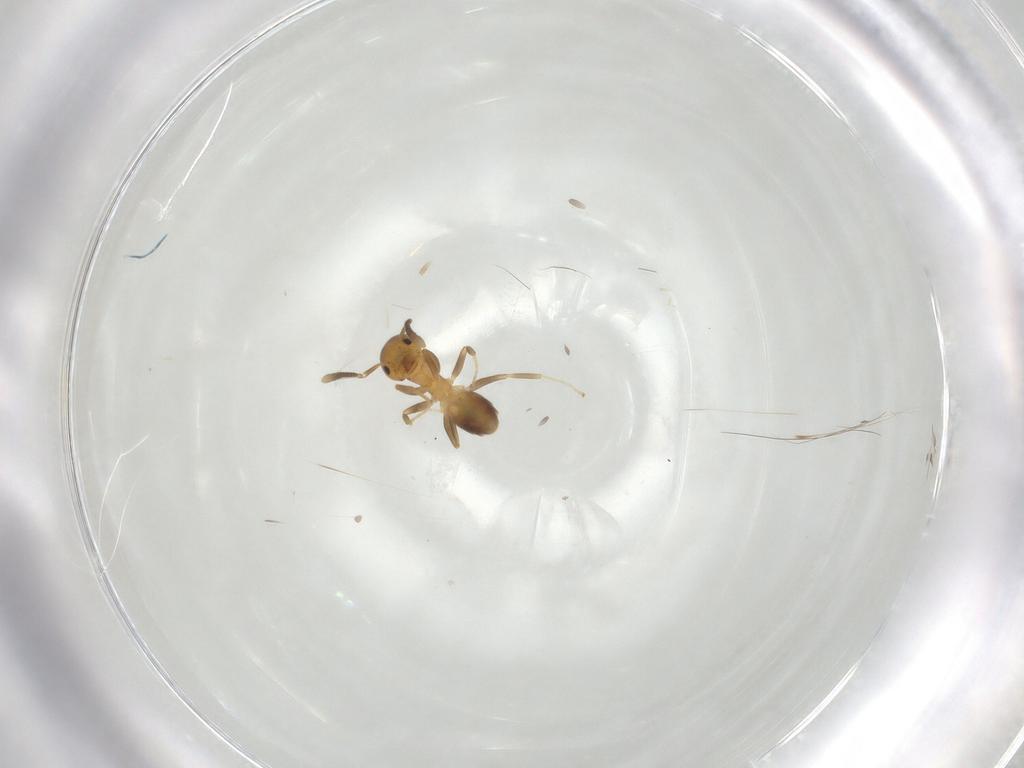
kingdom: Animalia
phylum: Arthropoda
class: Insecta
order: Hymenoptera
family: Formicidae
